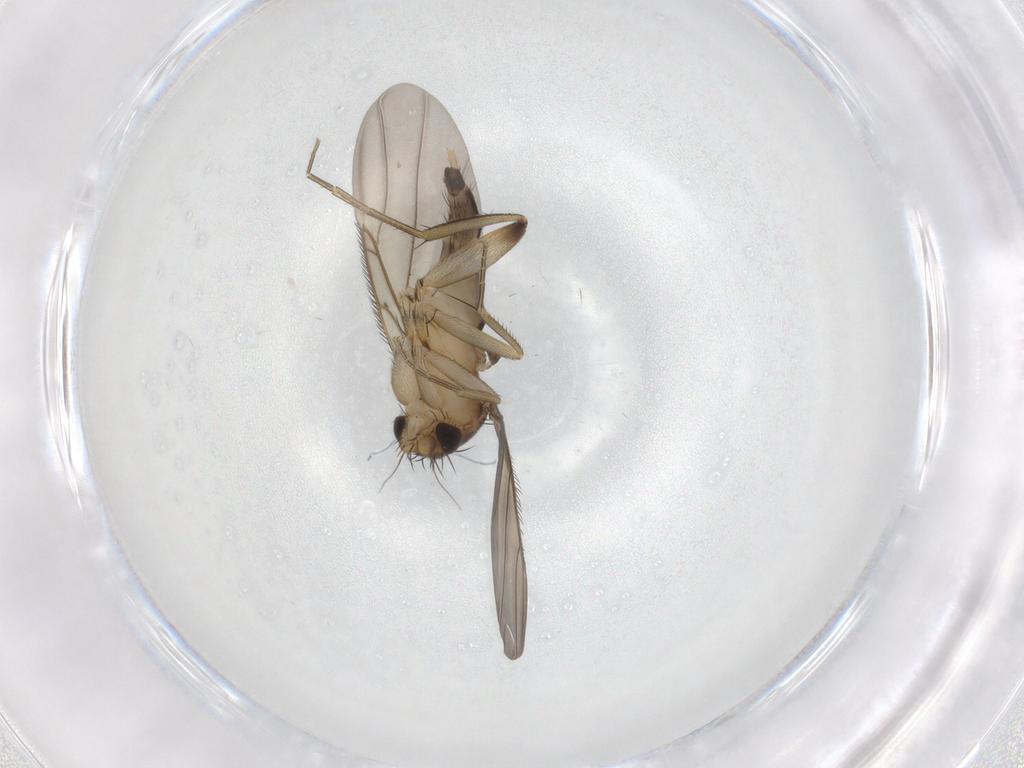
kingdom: Animalia
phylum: Arthropoda
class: Insecta
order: Diptera
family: Phoridae
